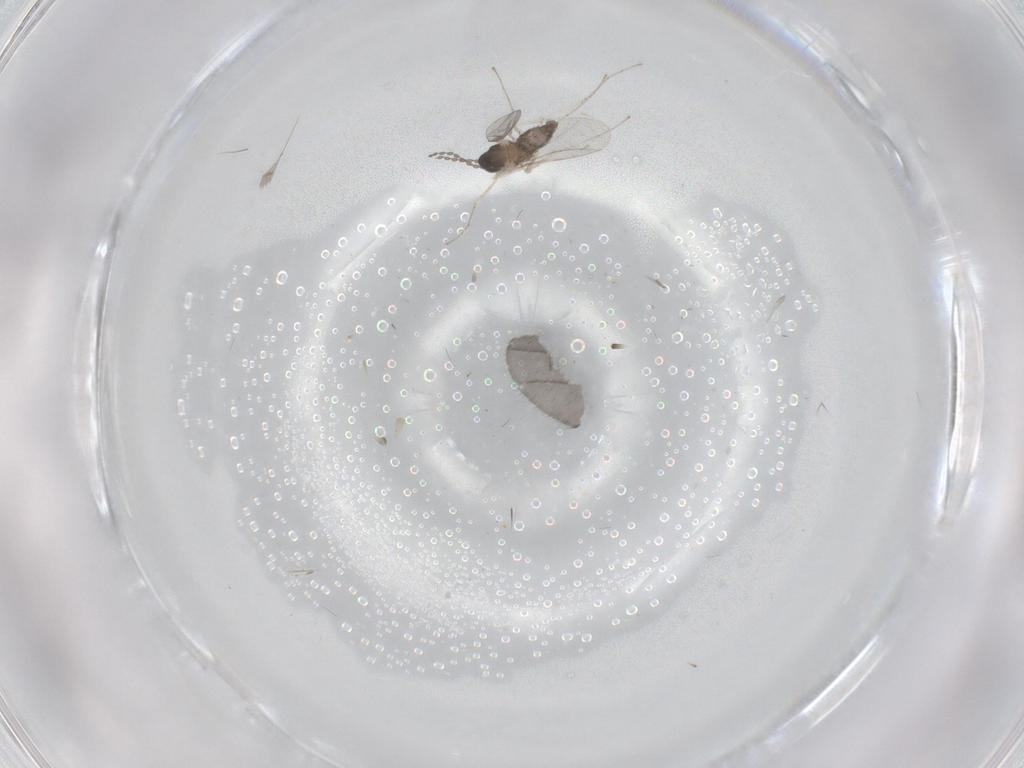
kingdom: Animalia
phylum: Arthropoda
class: Insecta
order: Diptera
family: Cecidomyiidae
